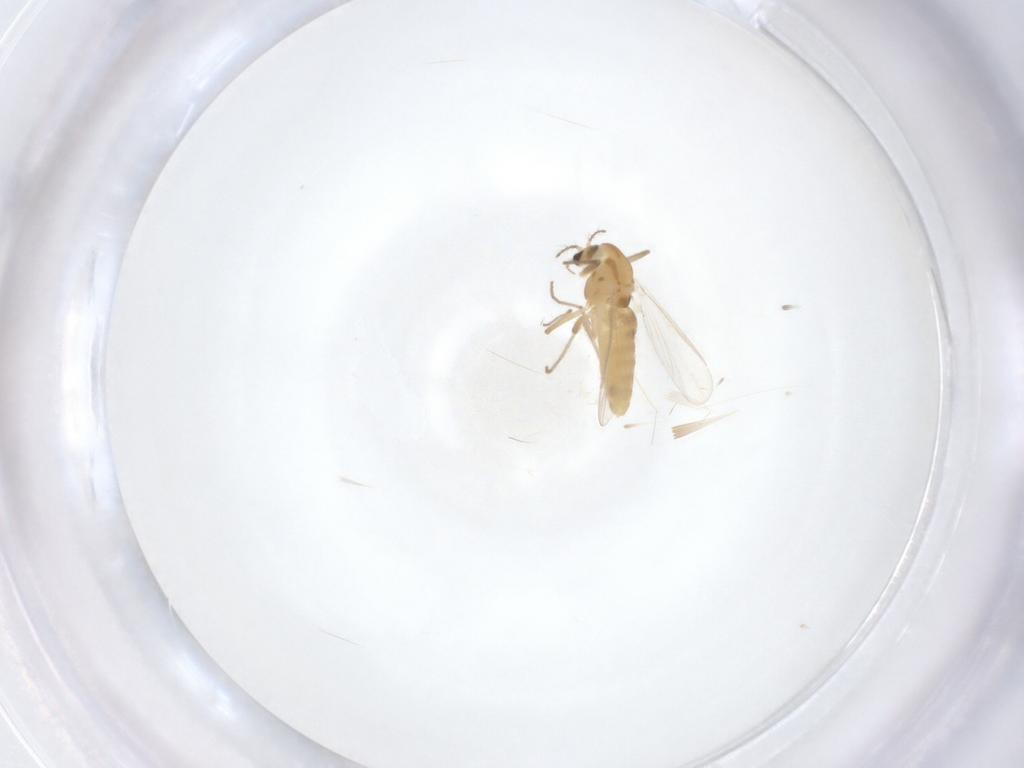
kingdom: Animalia
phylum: Arthropoda
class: Insecta
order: Diptera
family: Chironomidae
